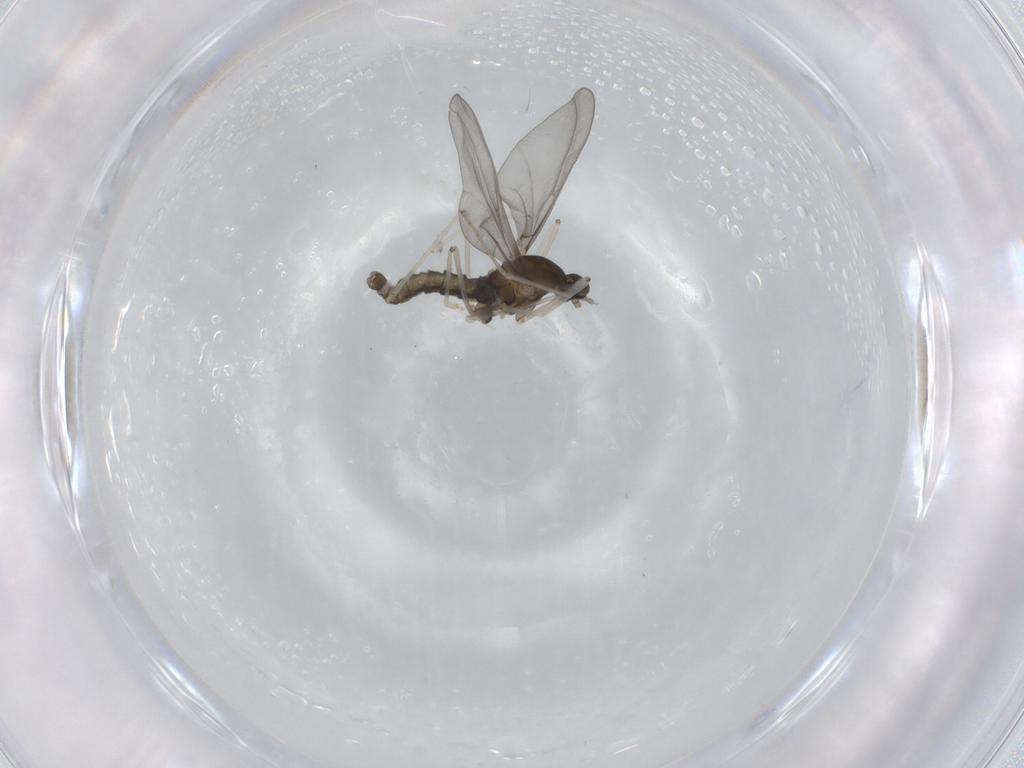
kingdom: Animalia
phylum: Arthropoda
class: Insecta
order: Diptera
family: Cecidomyiidae
